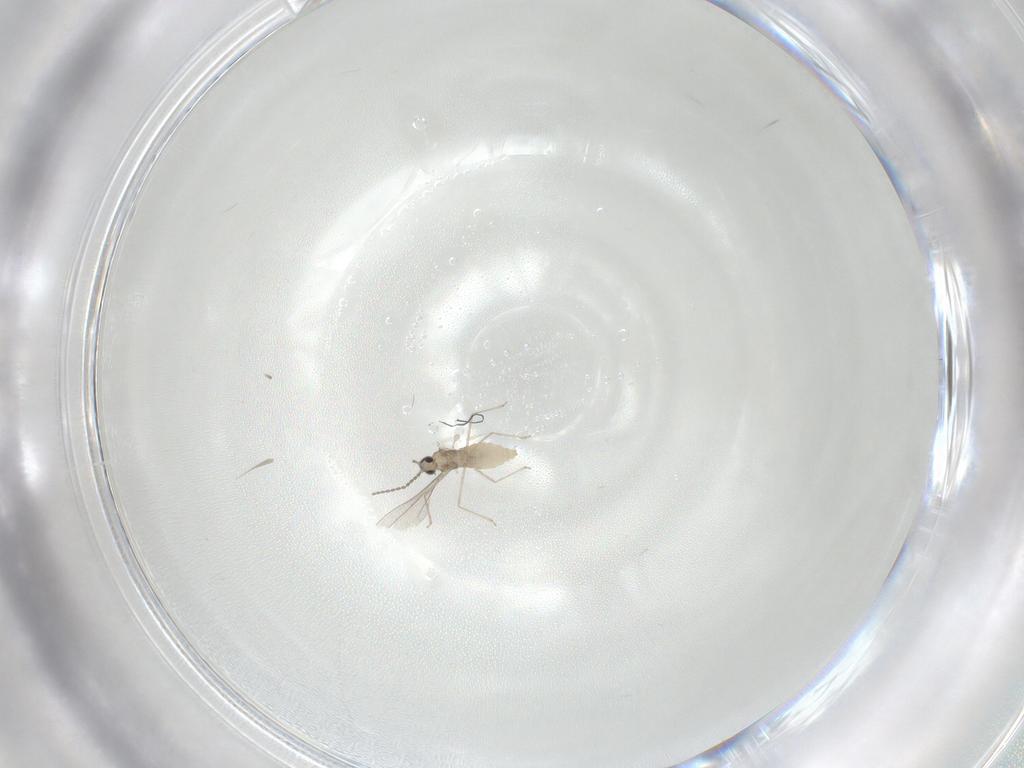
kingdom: Animalia
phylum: Arthropoda
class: Insecta
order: Diptera
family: Cecidomyiidae
